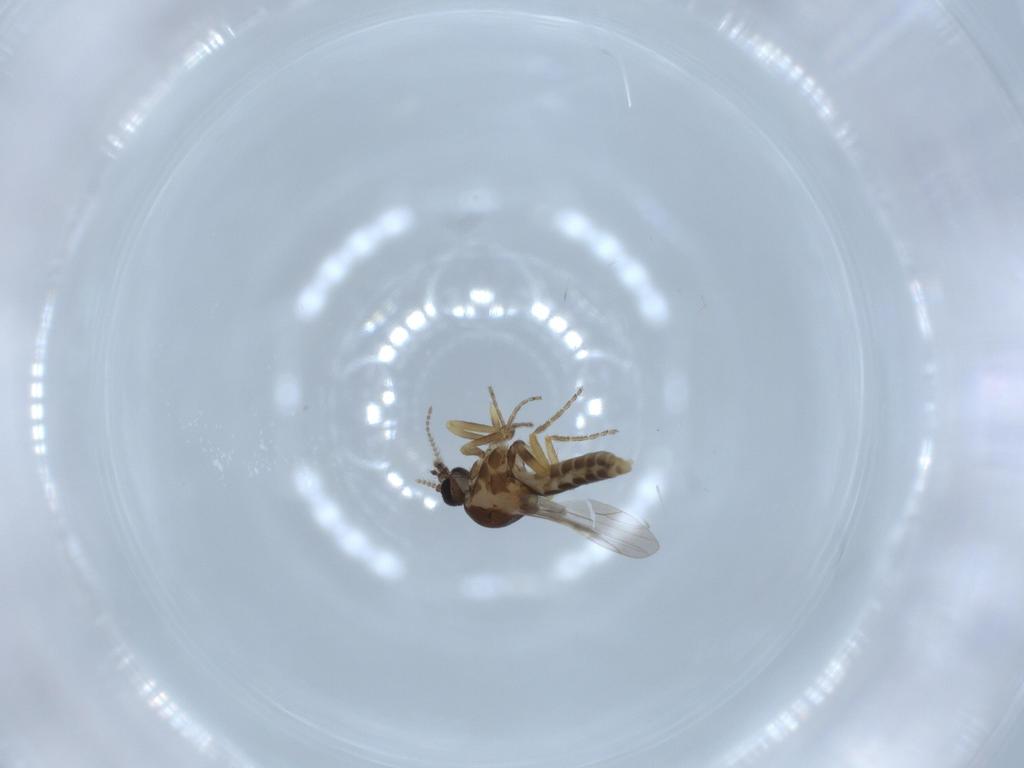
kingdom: Animalia
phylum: Arthropoda
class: Insecta
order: Diptera
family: Ceratopogonidae
